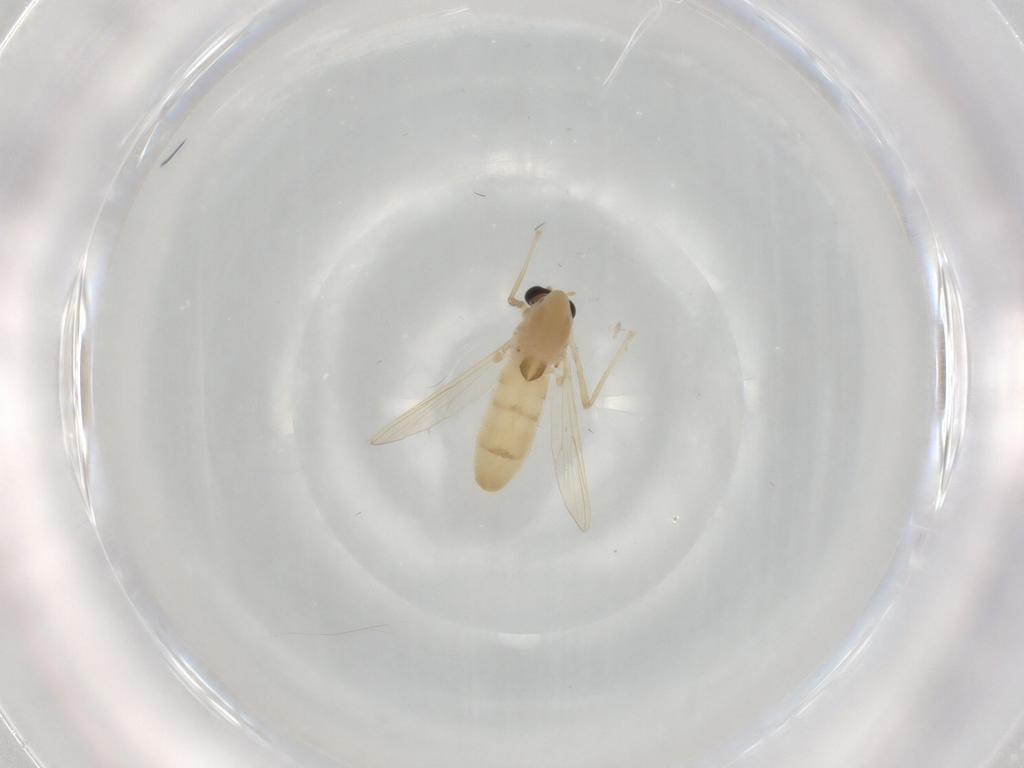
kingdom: Animalia
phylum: Arthropoda
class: Insecta
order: Diptera
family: Chironomidae
